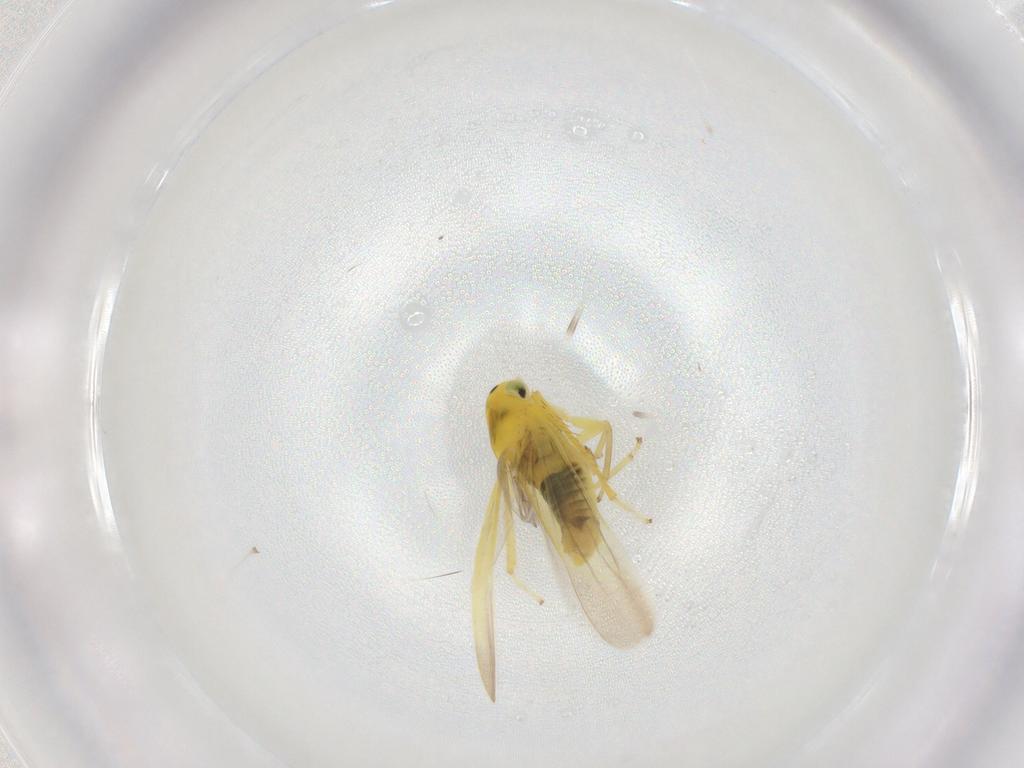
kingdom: Animalia
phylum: Arthropoda
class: Insecta
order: Hemiptera
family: Cicadellidae
